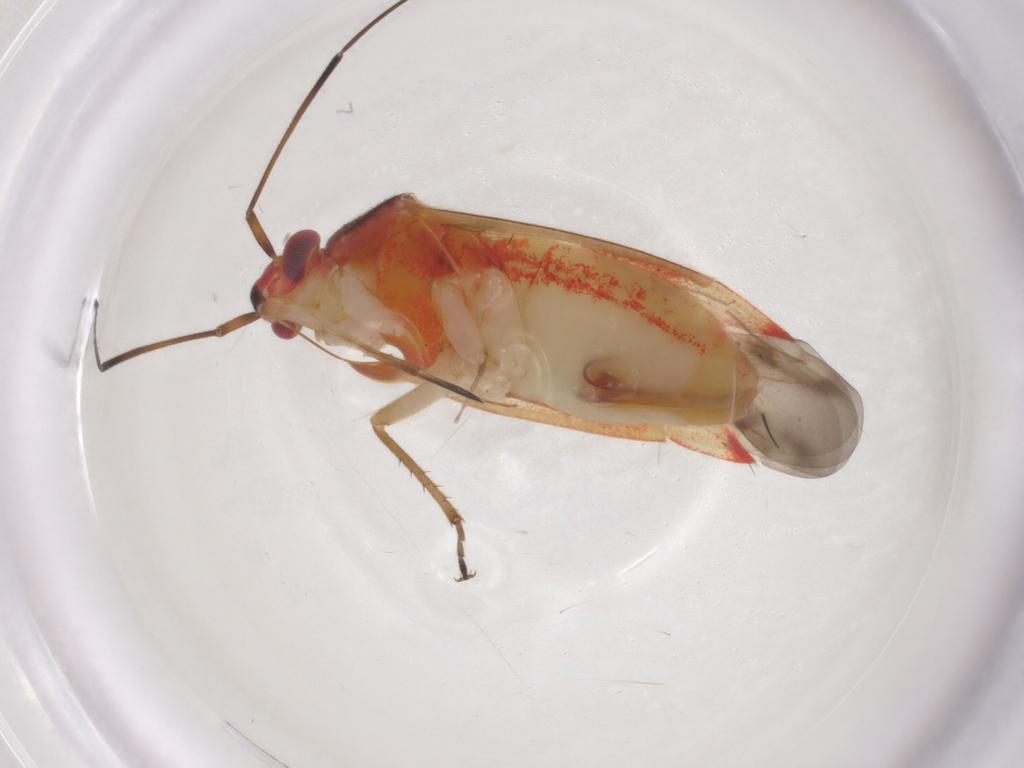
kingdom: Animalia
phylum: Arthropoda
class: Insecta
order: Hemiptera
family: Miridae
